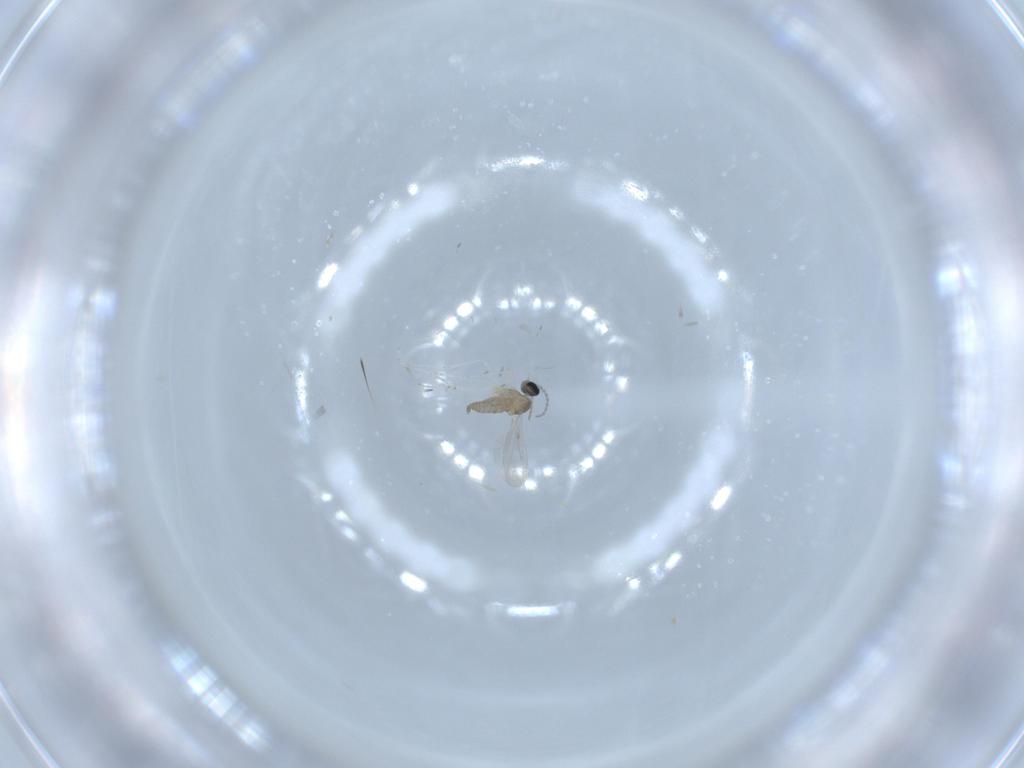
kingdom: Animalia
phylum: Arthropoda
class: Insecta
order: Diptera
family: Cecidomyiidae
